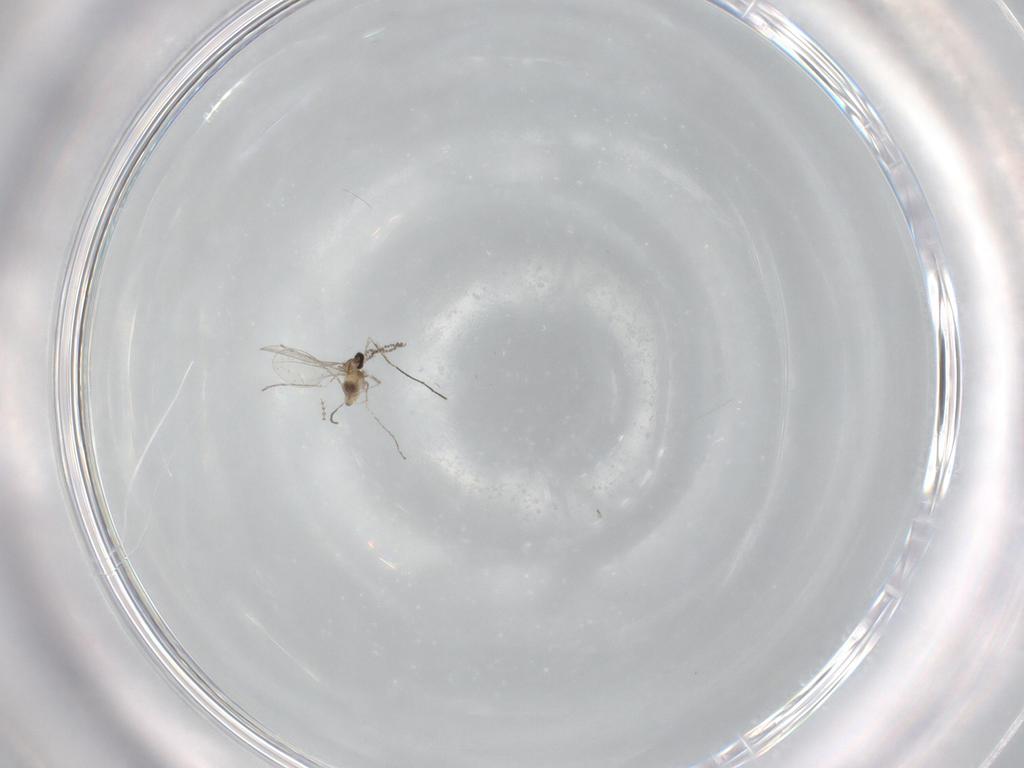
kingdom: Animalia
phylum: Arthropoda
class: Insecta
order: Diptera
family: Cecidomyiidae
